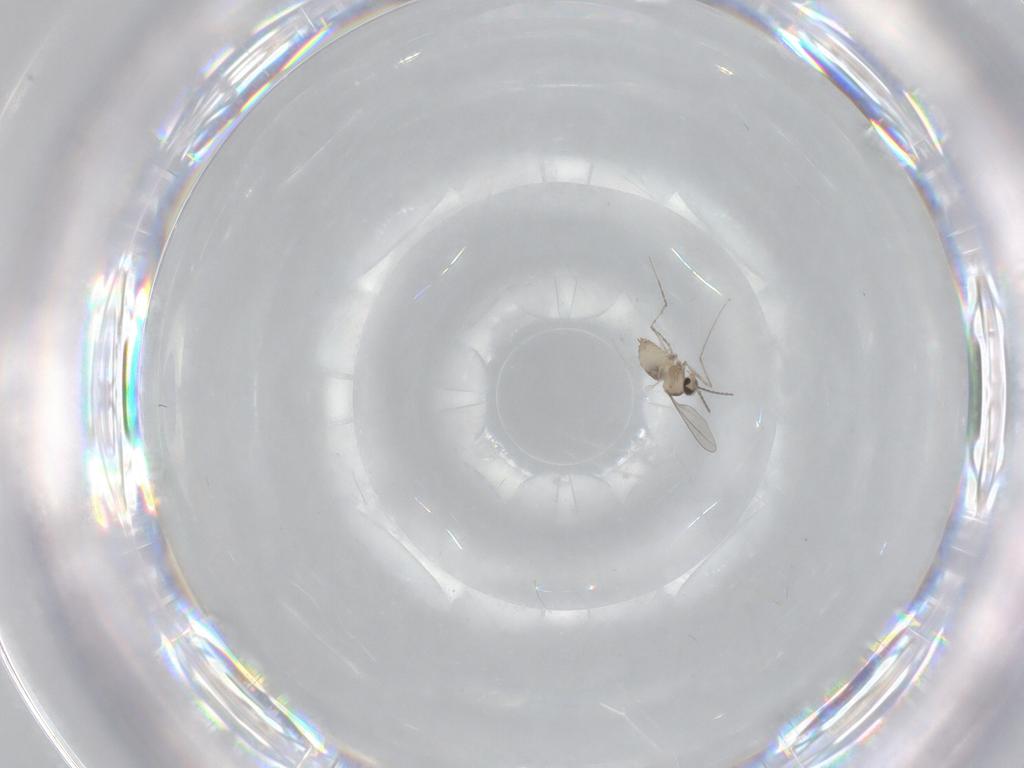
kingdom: Animalia
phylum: Arthropoda
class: Insecta
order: Diptera
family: Cecidomyiidae
